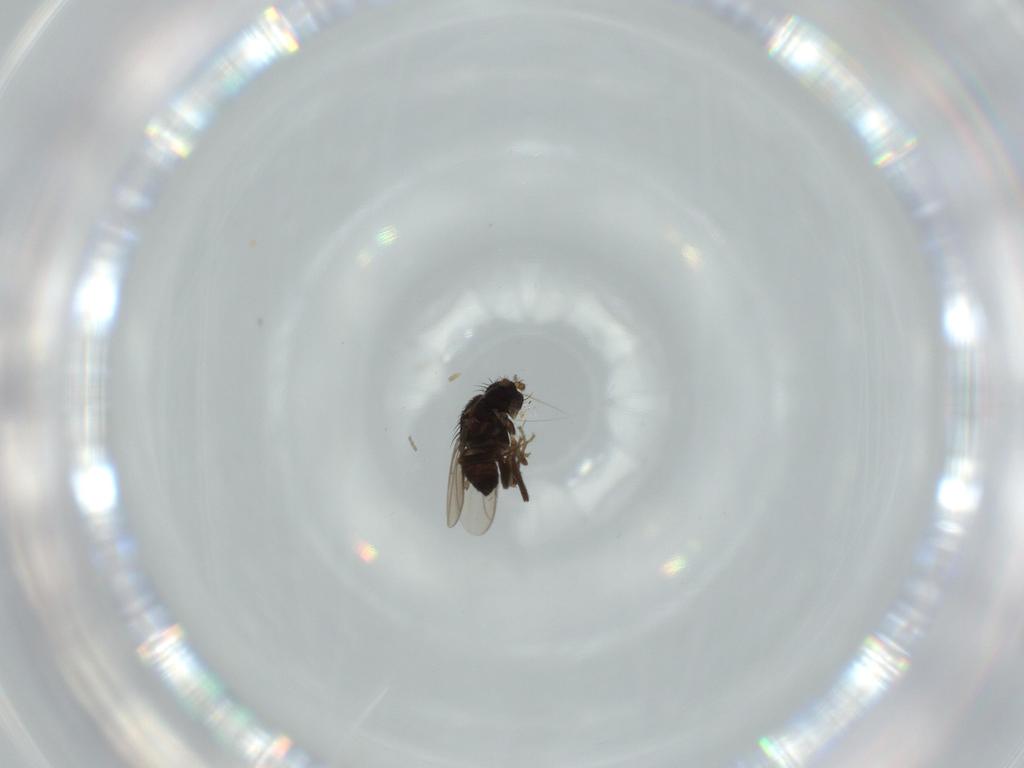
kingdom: Animalia
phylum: Arthropoda
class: Insecta
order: Diptera
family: Sphaeroceridae
